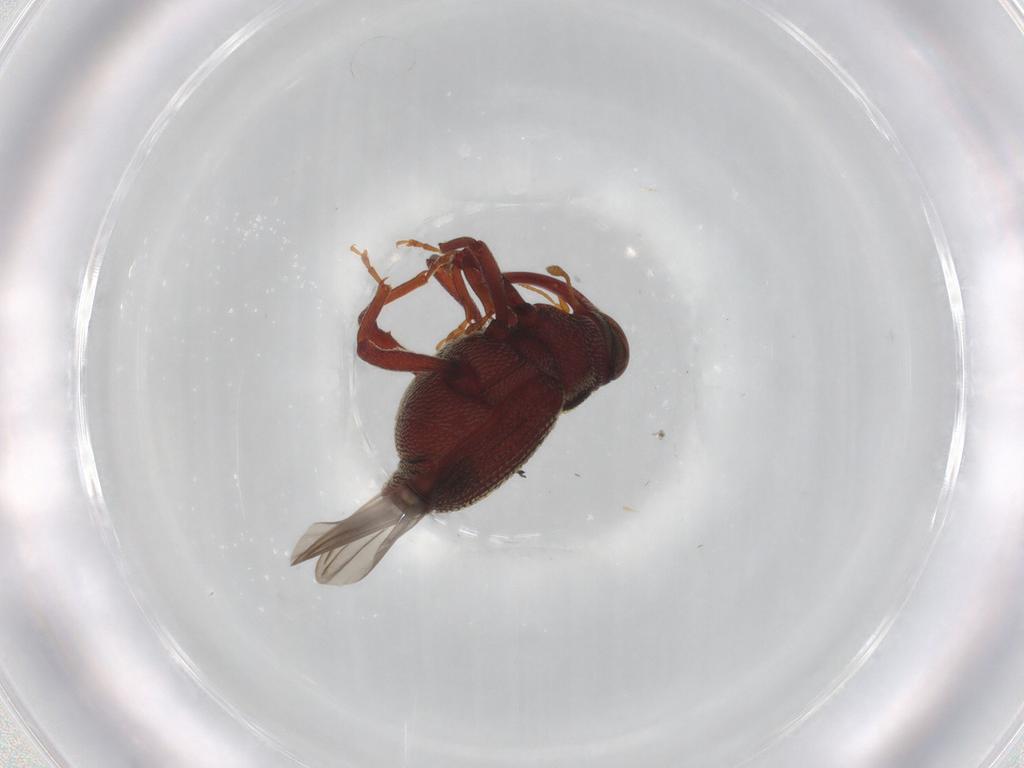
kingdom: Animalia
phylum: Arthropoda
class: Insecta
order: Coleoptera
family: Curculionidae
